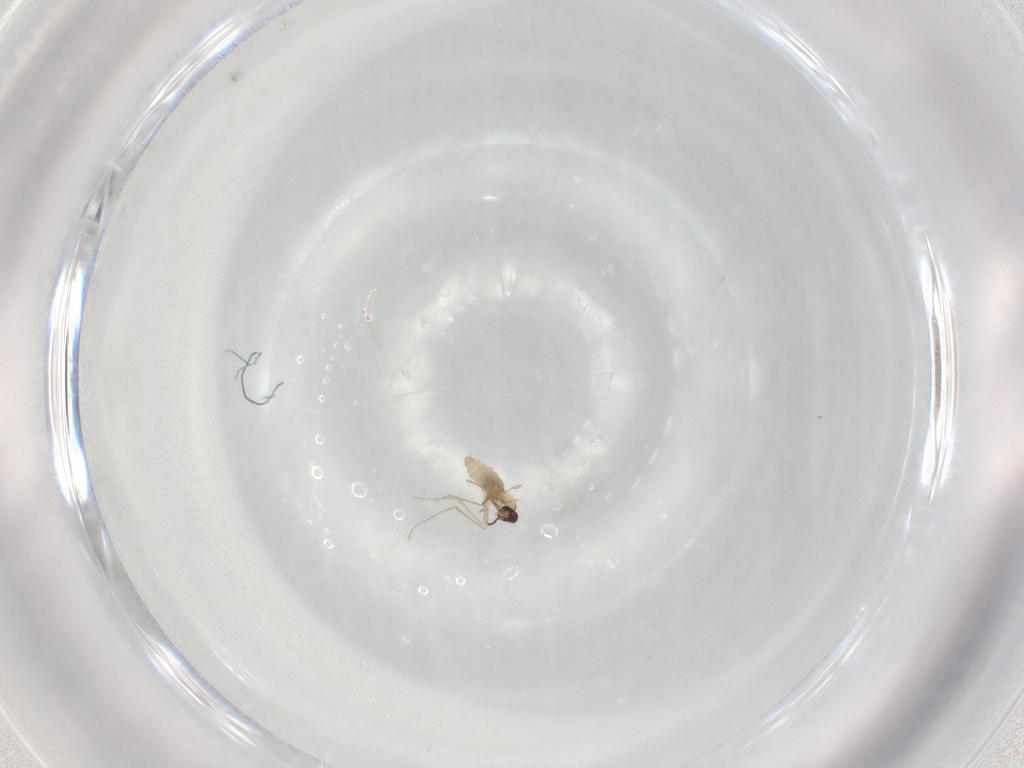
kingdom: Animalia
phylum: Arthropoda
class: Insecta
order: Diptera
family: Cecidomyiidae
